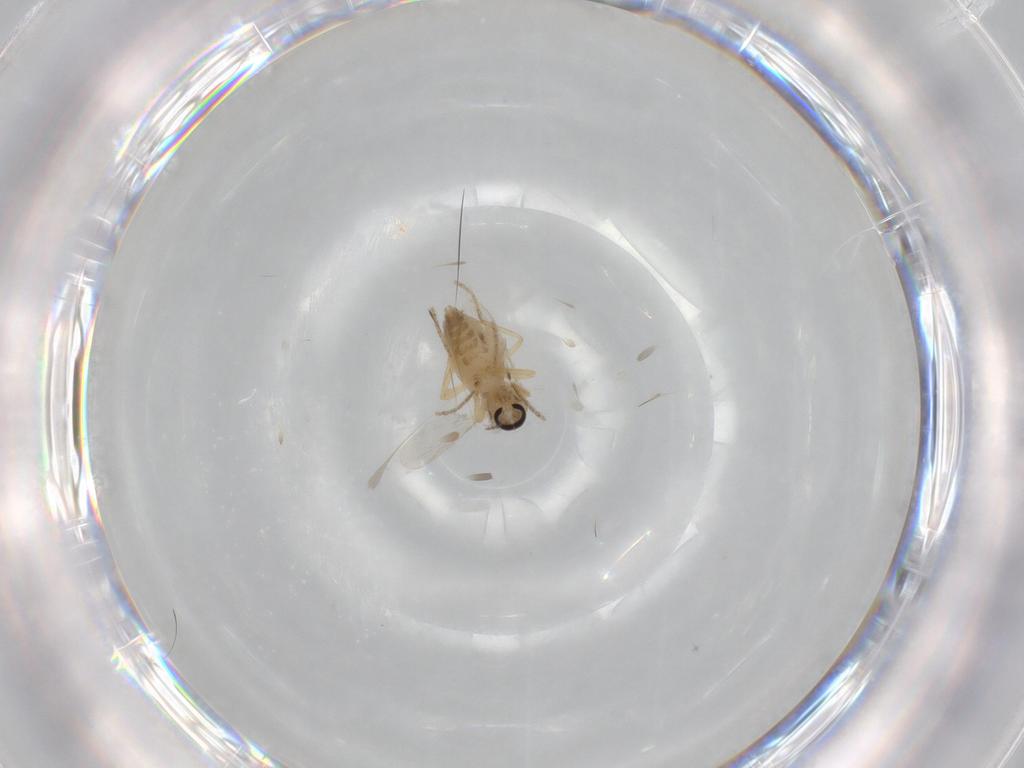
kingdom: Animalia
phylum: Arthropoda
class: Insecta
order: Diptera
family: Ceratopogonidae
